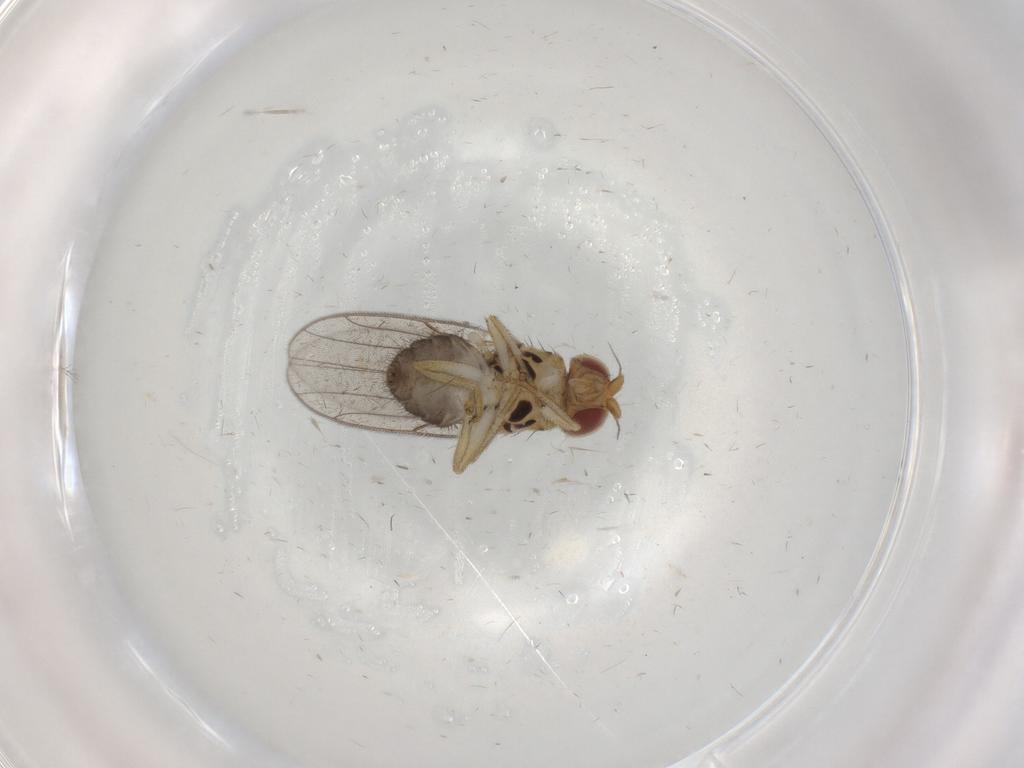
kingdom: Animalia
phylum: Arthropoda
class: Insecta
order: Diptera
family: Chloropidae
